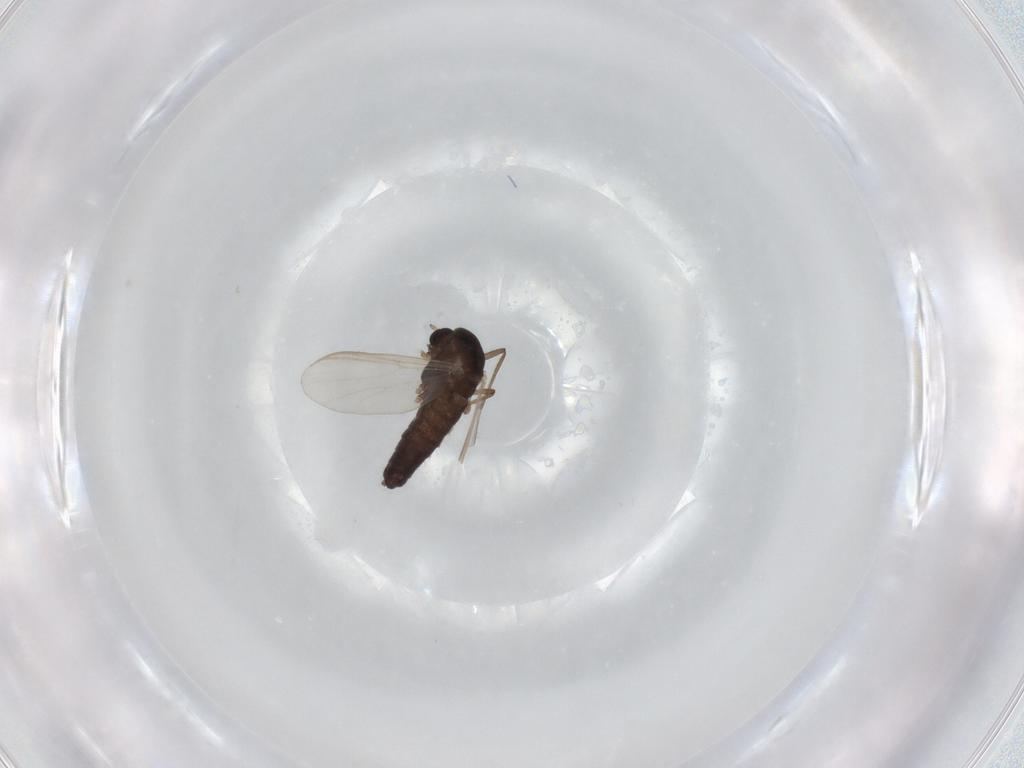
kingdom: Animalia
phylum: Arthropoda
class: Insecta
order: Diptera
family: Chironomidae
